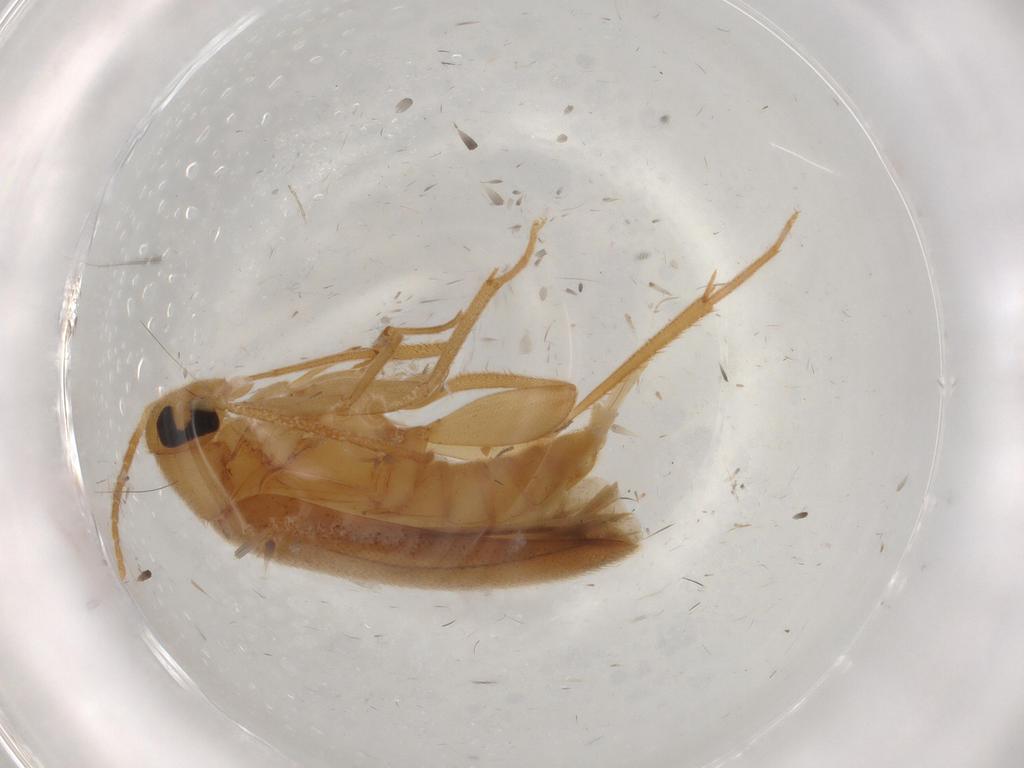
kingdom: Animalia
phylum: Arthropoda
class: Insecta
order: Coleoptera
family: Scraptiidae
